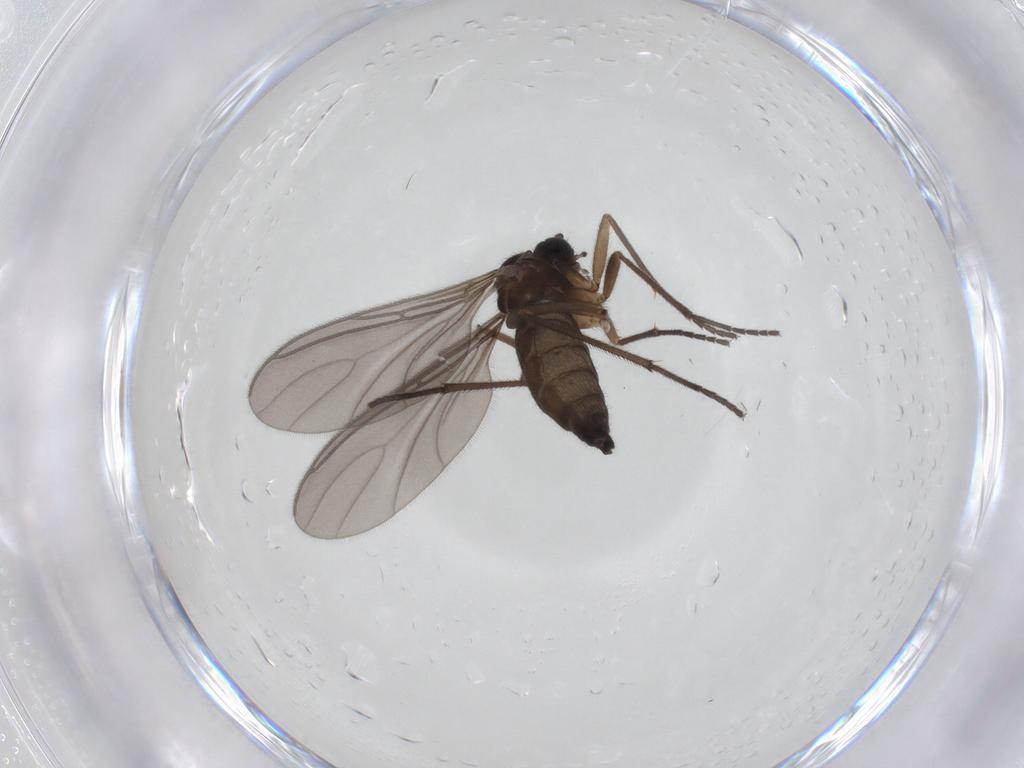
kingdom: Animalia
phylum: Arthropoda
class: Insecta
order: Diptera
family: Sciaridae
